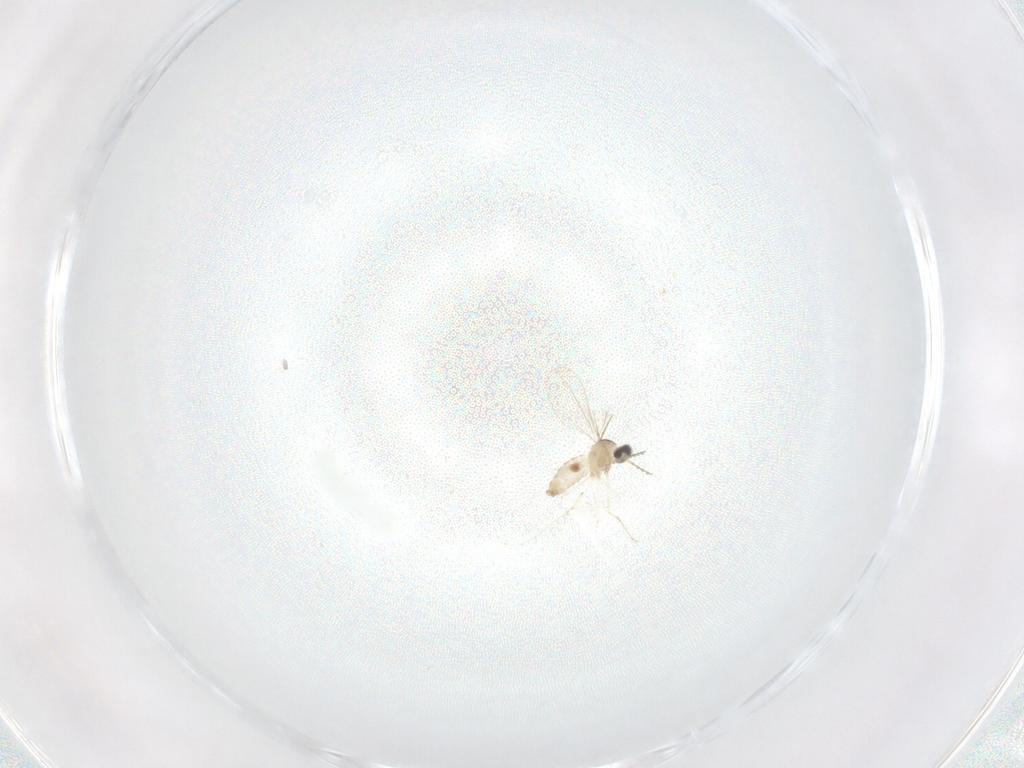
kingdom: Animalia
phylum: Arthropoda
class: Insecta
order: Diptera
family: Cecidomyiidae
